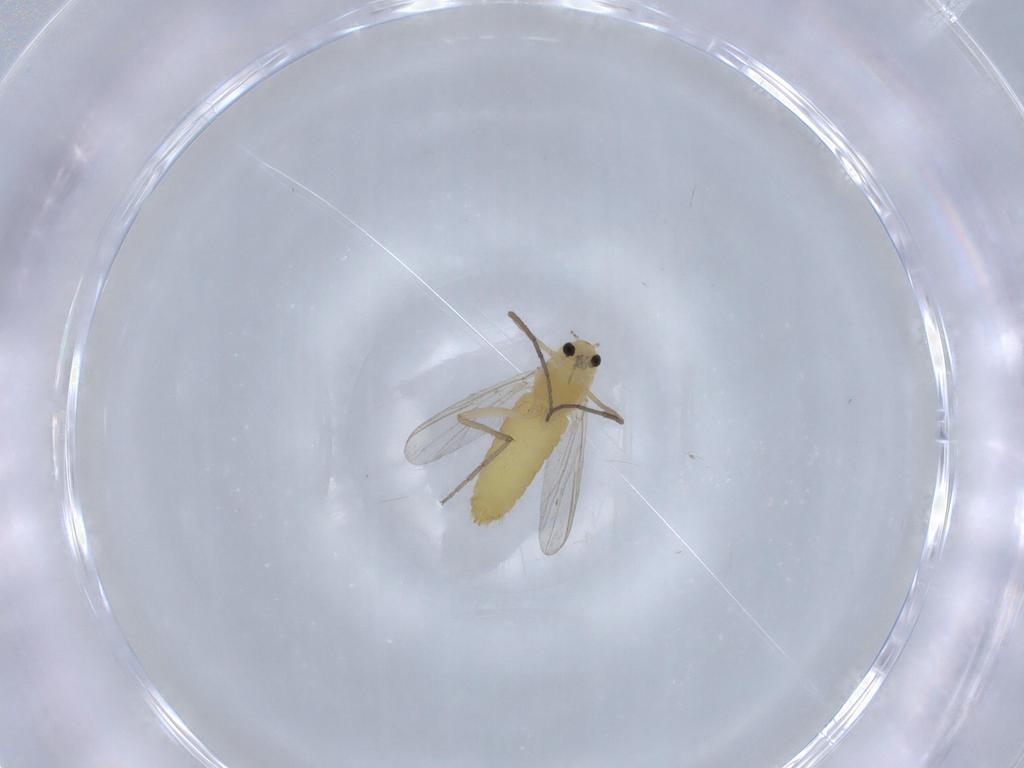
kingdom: Animalia
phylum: Arthropoda
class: Insecta
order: Diptera
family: Chironomidae
